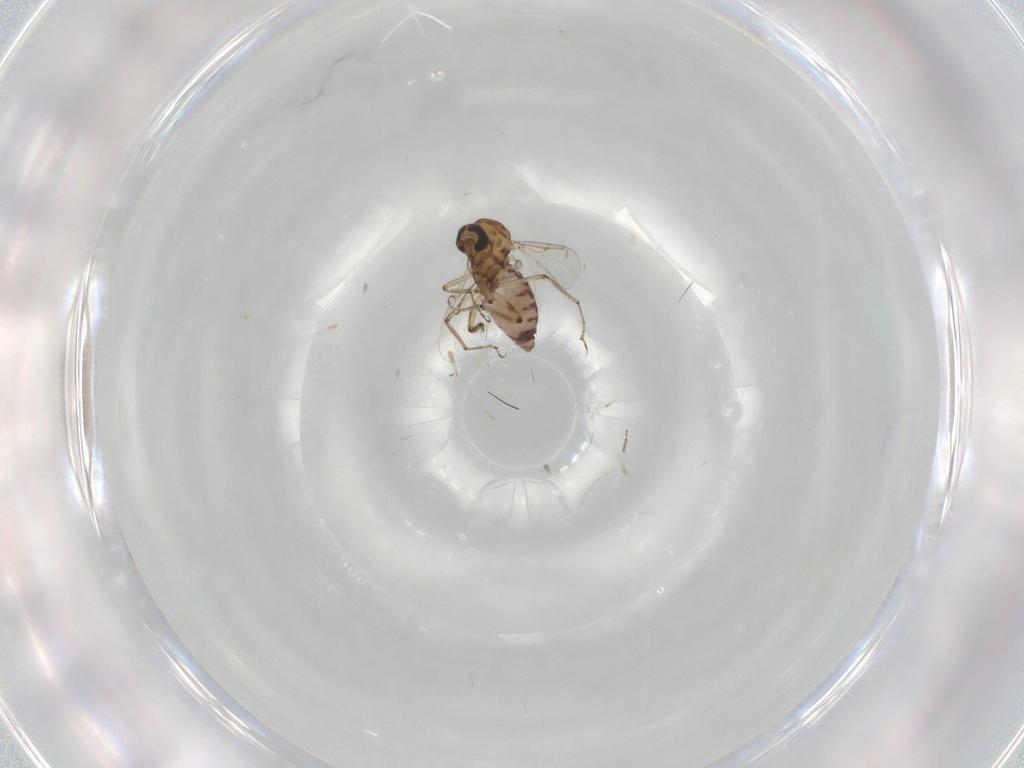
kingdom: Animalia
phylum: Arthropoda
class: Insecta
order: Diptera
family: Ceratopogonidae
